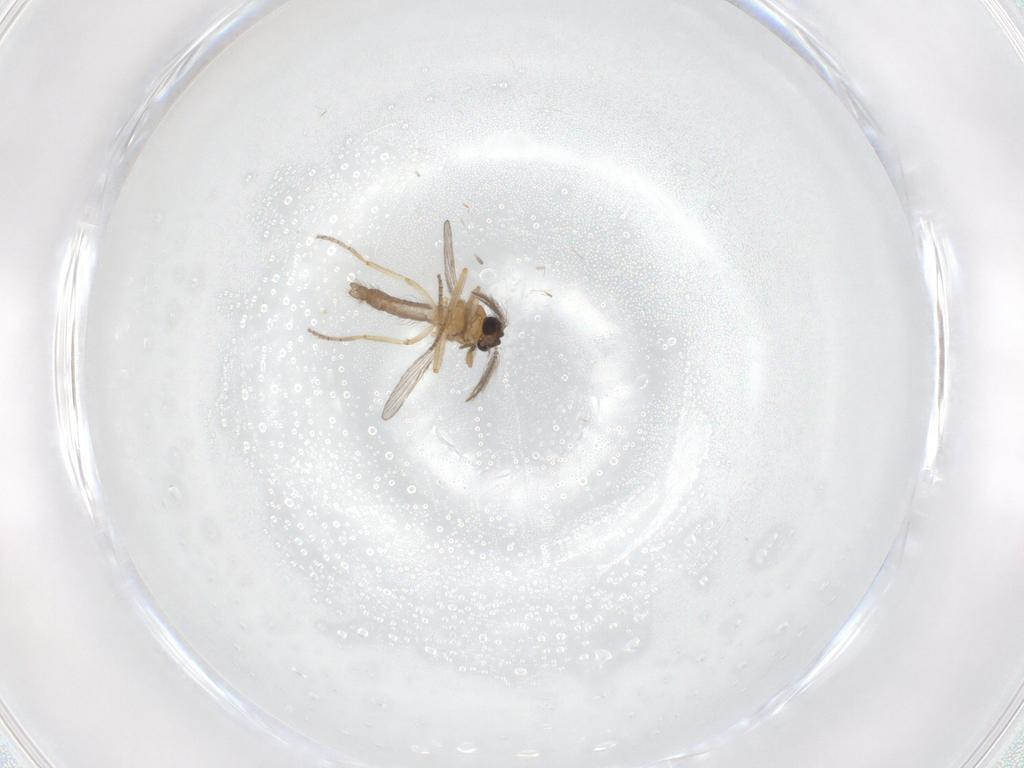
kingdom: Animalia
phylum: Arthropoda
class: Insecta
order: Diptera
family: Ceratopogonidae
